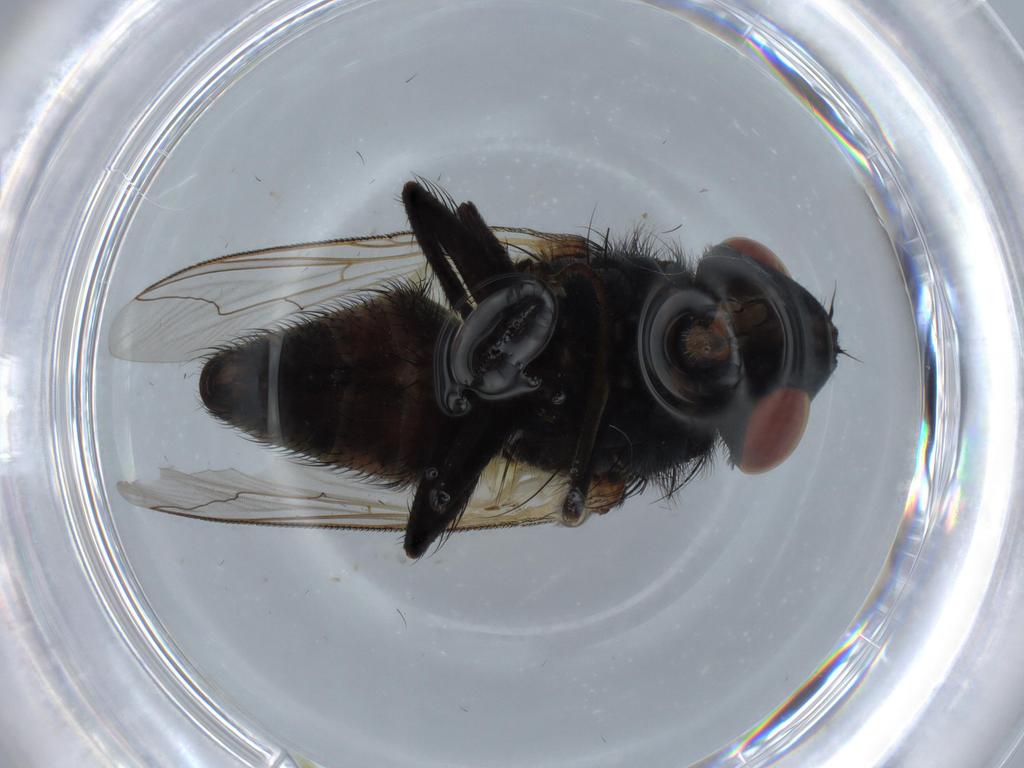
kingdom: Animalia
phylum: Arthropoda
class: Insecta
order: Diptera
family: Sarcophagidae
